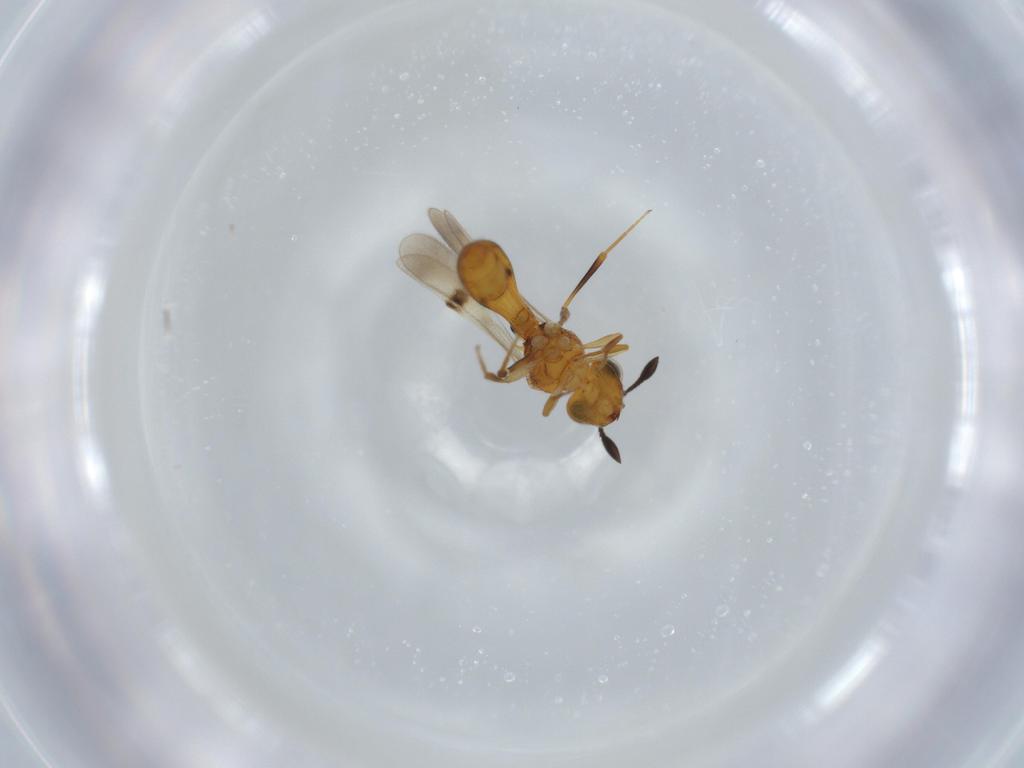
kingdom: Animalia
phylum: Arthropoda
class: Insecta
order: Hymenoptera
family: Scelionidae
